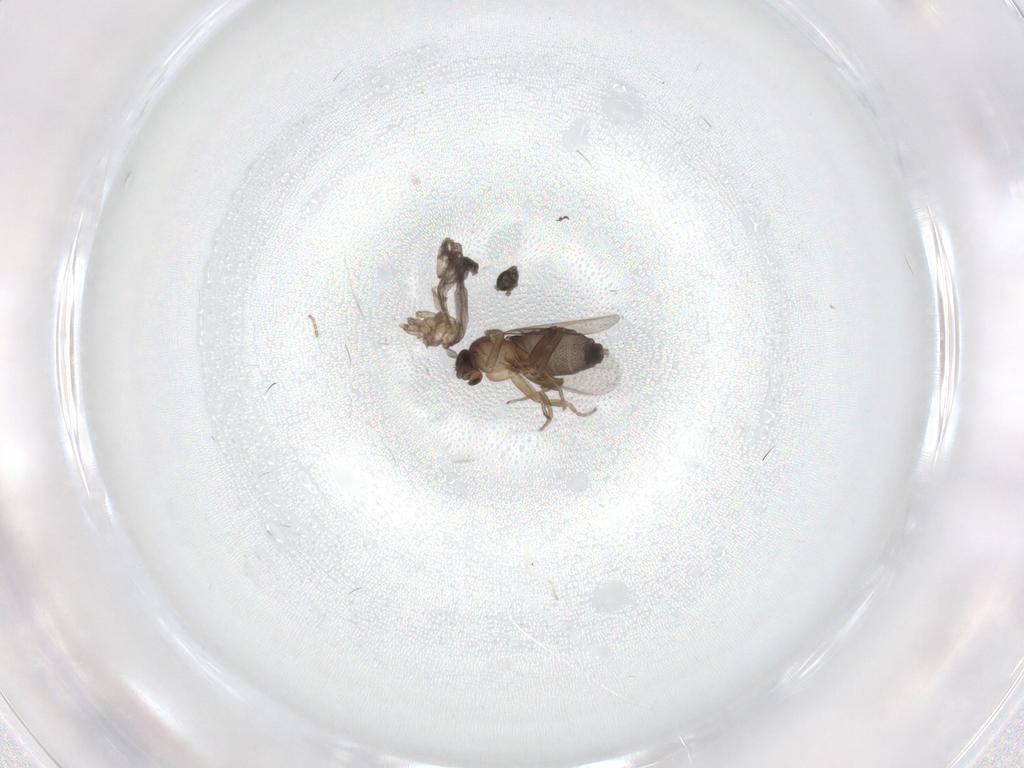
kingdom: Animalia
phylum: Arthropoda
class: Insecta
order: Diptera
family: Sciaridae
